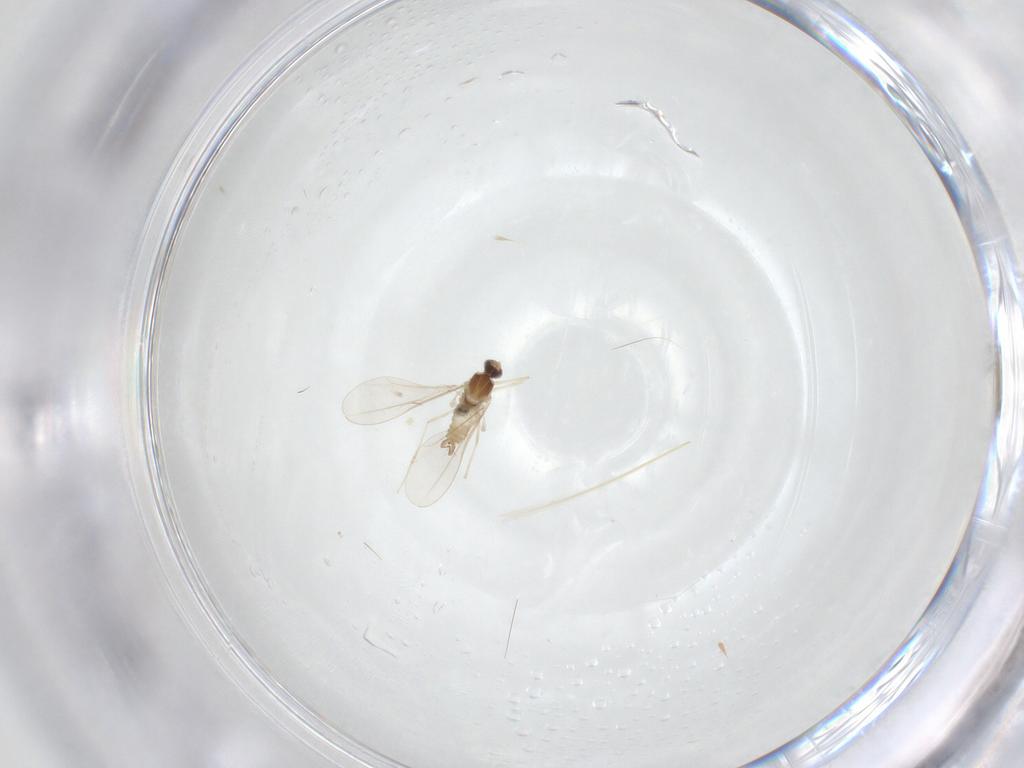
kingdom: Animalia
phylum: Arthropoda
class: Insecta
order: Diptera
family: Cecidomyiidae
